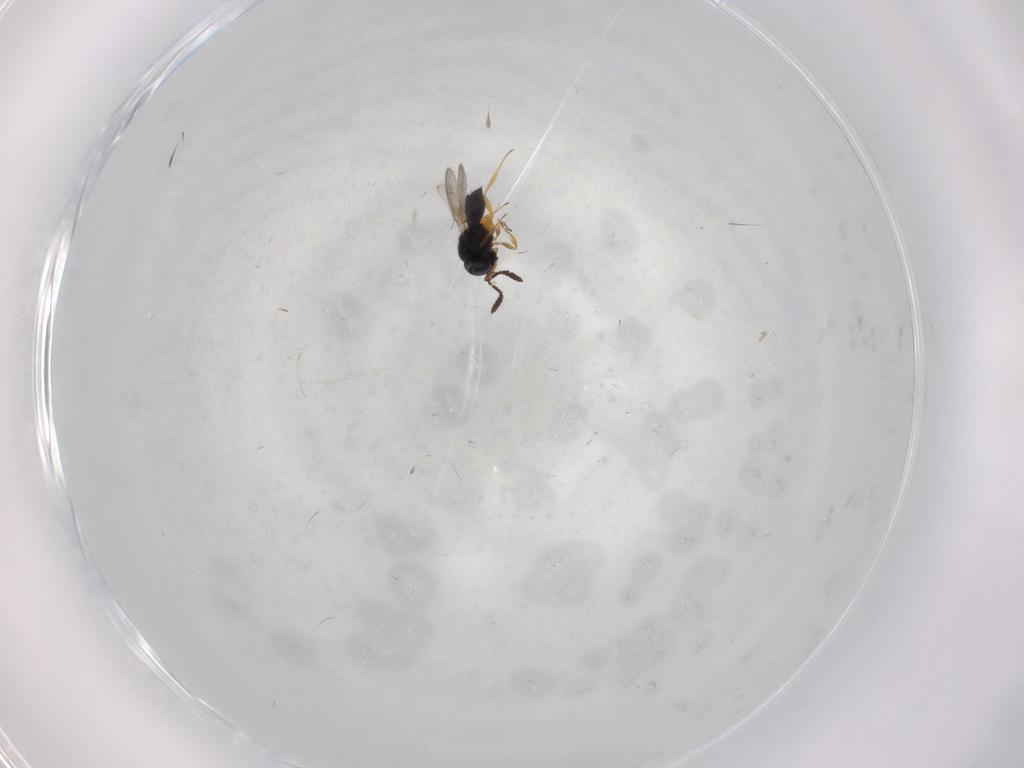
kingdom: Animalia
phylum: Arthropoda
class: Insecta
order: Hymenoptera
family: Scelionidae
